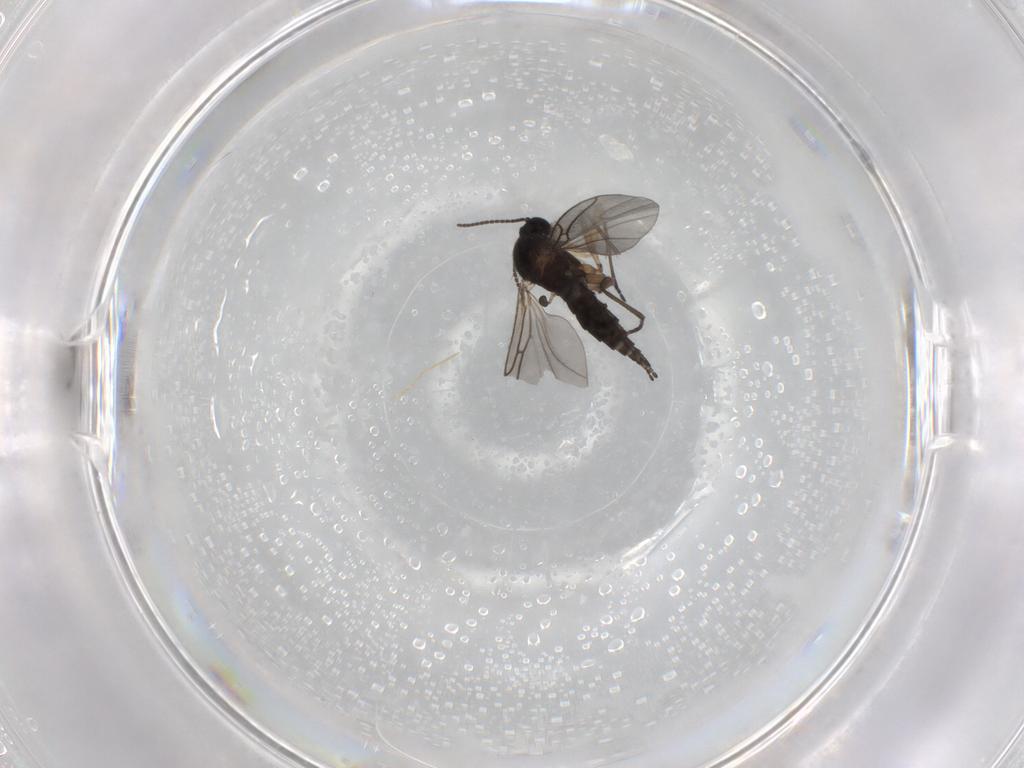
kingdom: Animalia
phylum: Arthropoda
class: Insecta
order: Diptera
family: Sciaridae
